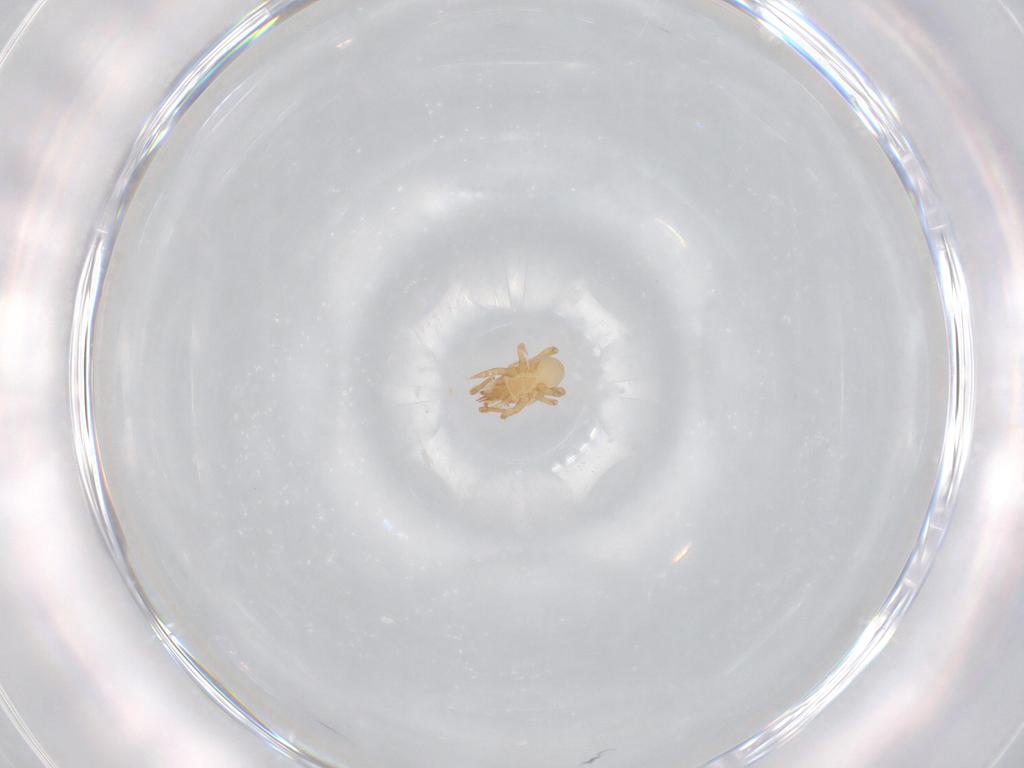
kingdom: Animalia
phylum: Arthropoda
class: Arachnida
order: Mesostigmata
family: Parasitidae
